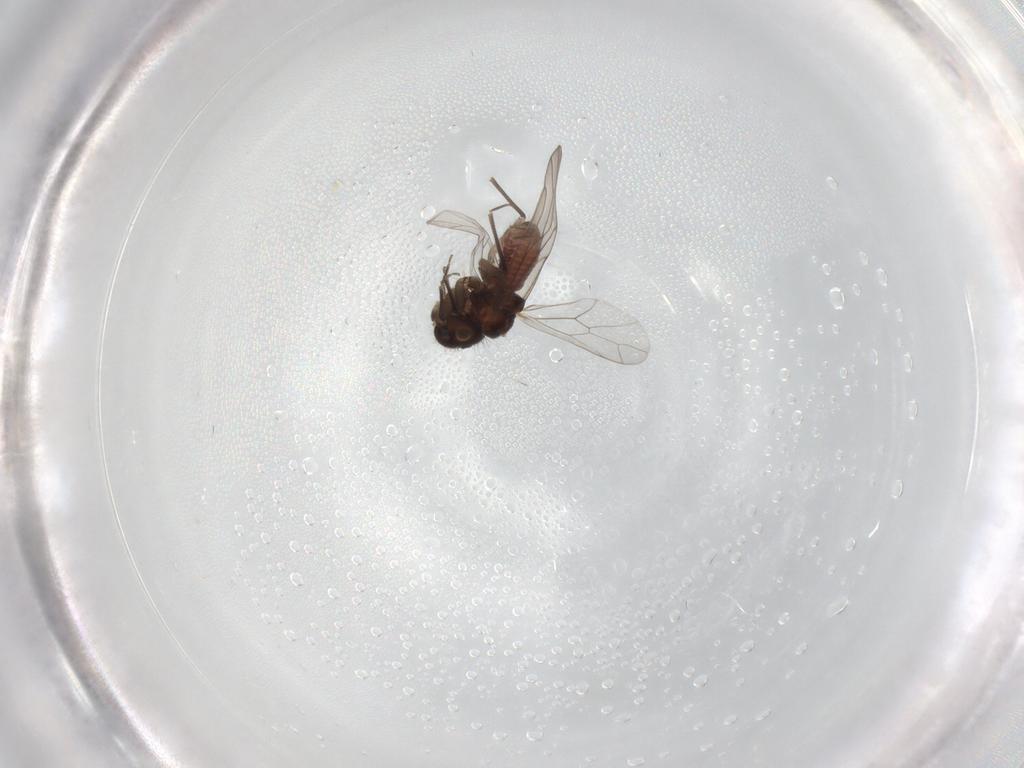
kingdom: Animalia
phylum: Arthropoda
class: Insecta
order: Psocodea
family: Ectopsocidae
